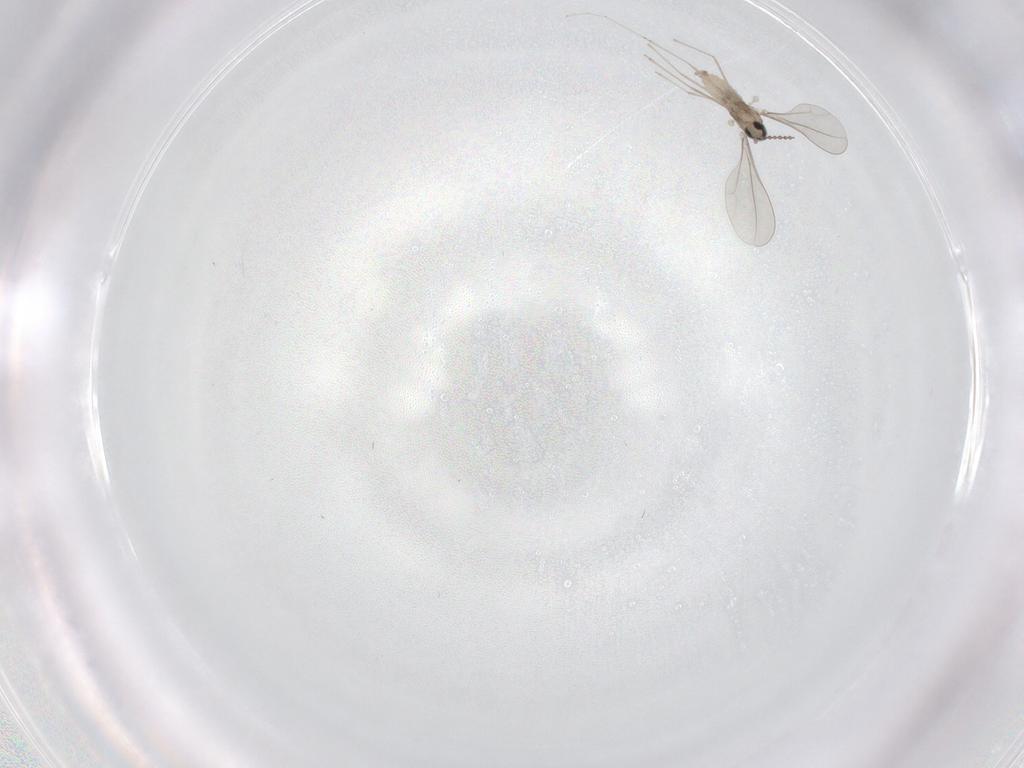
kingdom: Animalia
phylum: Arthropoda
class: Insecta
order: Diptera
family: Cecidomyiidae
